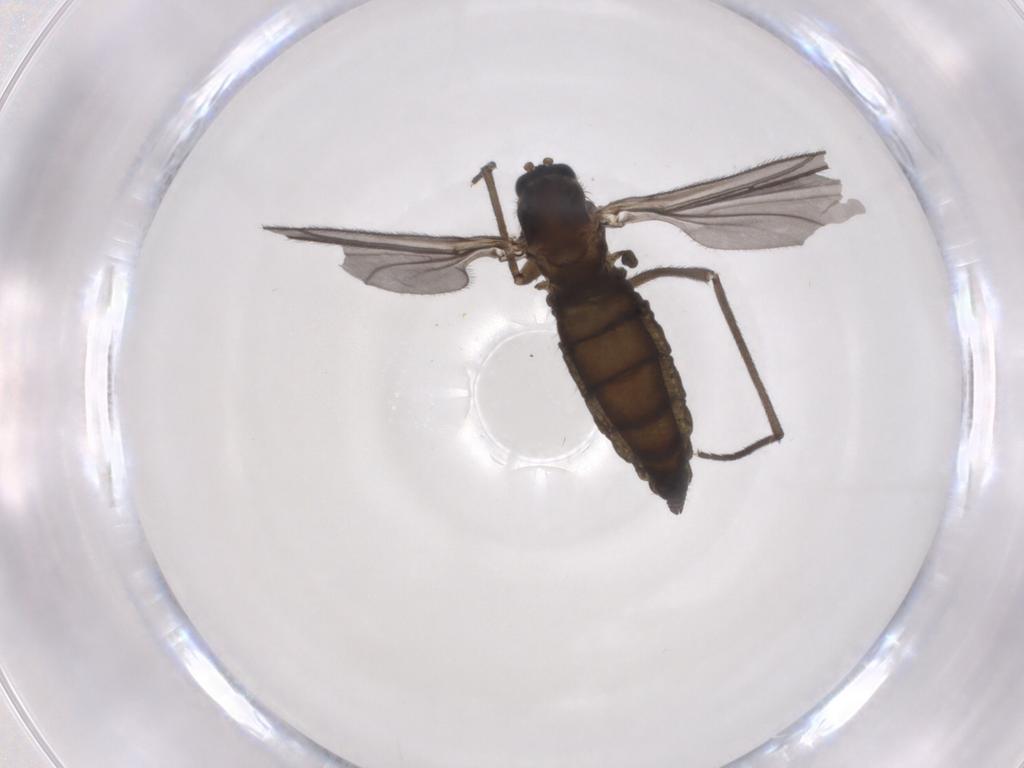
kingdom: Animalia
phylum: Arthropoda
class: Insecta
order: Diptera
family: Sciaridae
